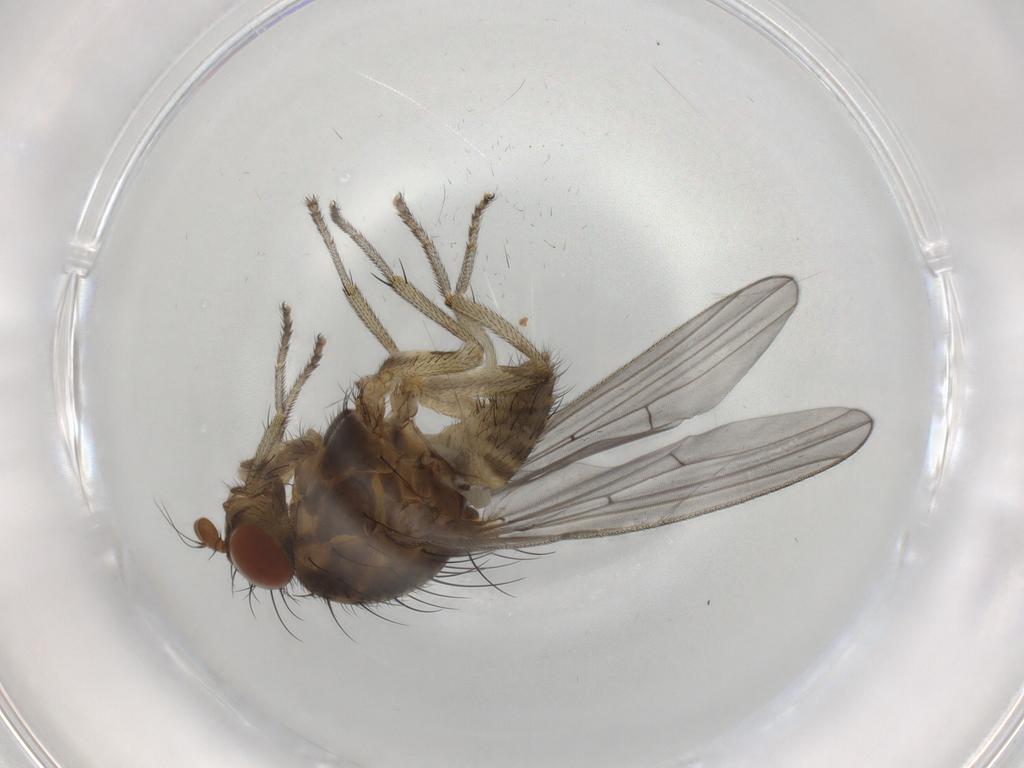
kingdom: Animalia
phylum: Arthropoda
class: Insecta
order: Diptera
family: Lauxaniidae
